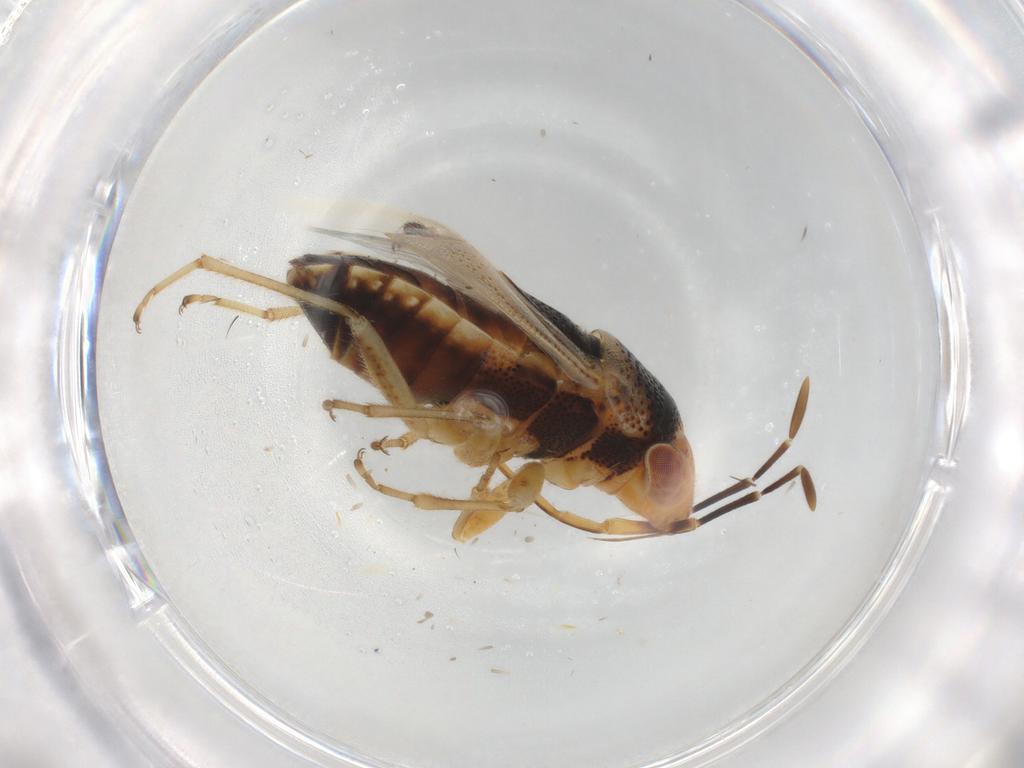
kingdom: Animalia
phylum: Arthropoda
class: Insecta
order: Hemiptera
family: Geocoridae
